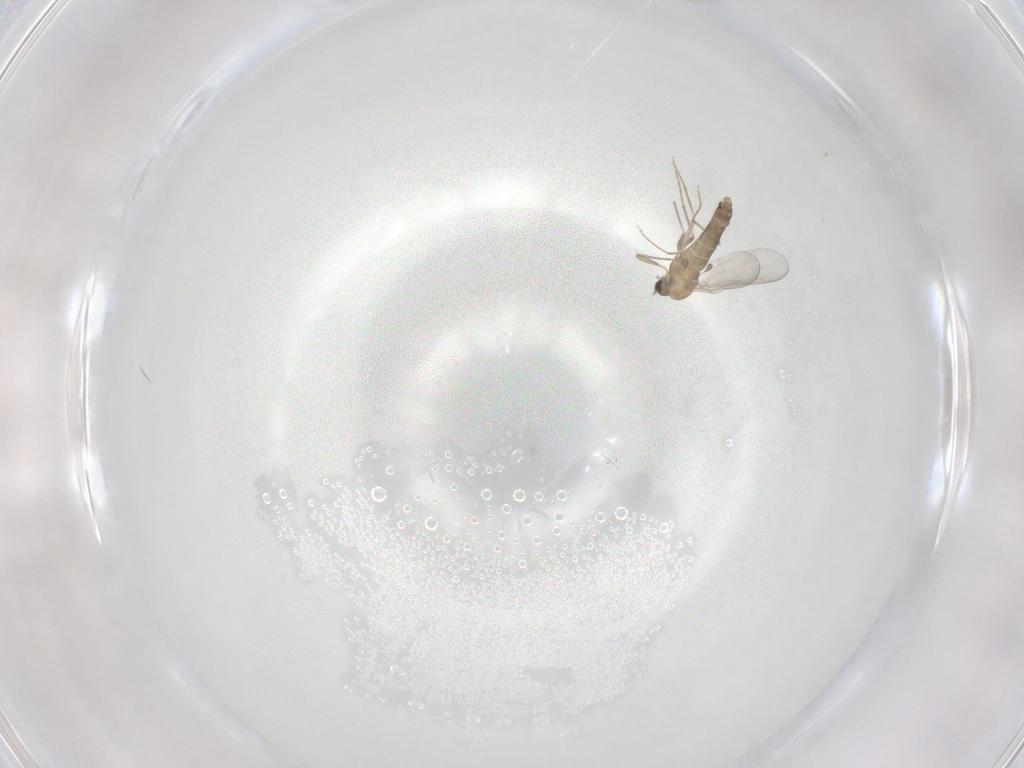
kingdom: Animalia
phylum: Arthropoda
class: Insecta
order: Diptera
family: Chironomidae
